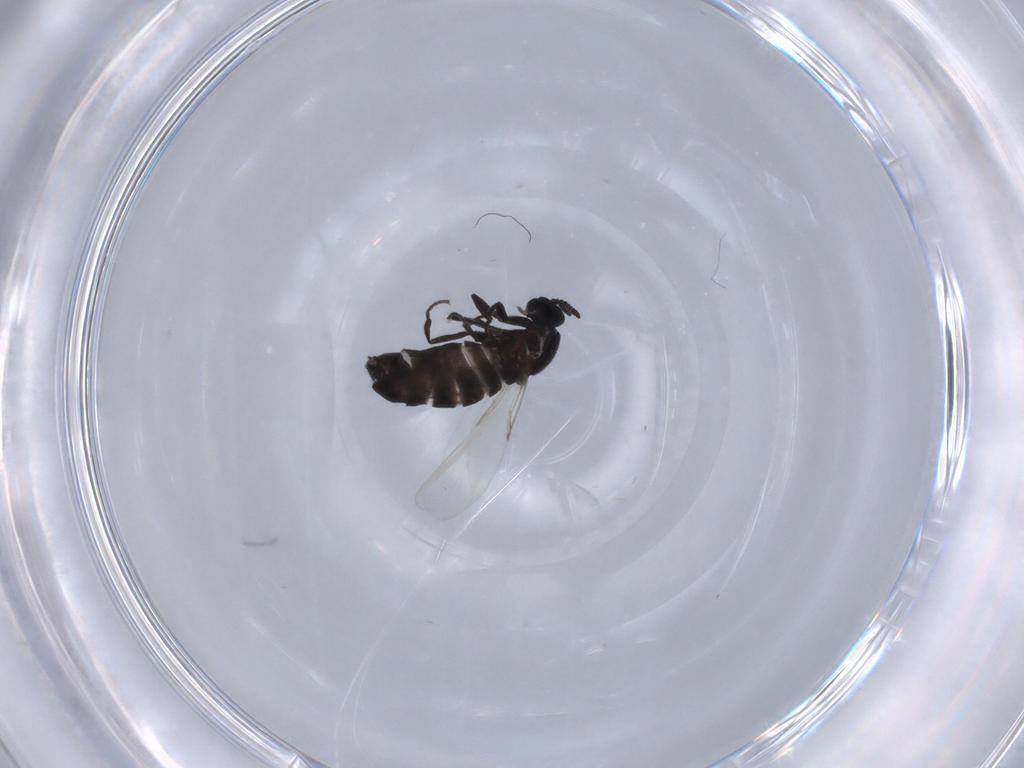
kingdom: Animalia
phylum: Arthropoda
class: Insecta
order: Diptera
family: Scatopsidae
